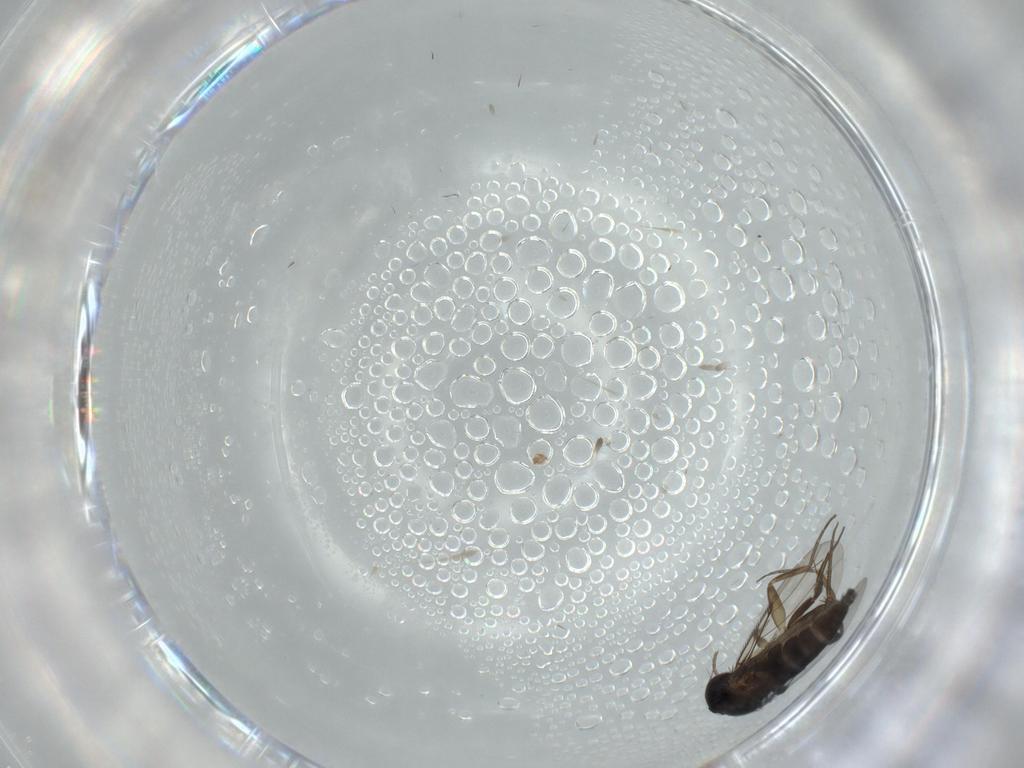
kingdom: Animalia
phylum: Arthropoda
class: Insecta
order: Diptera
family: Phoridae
